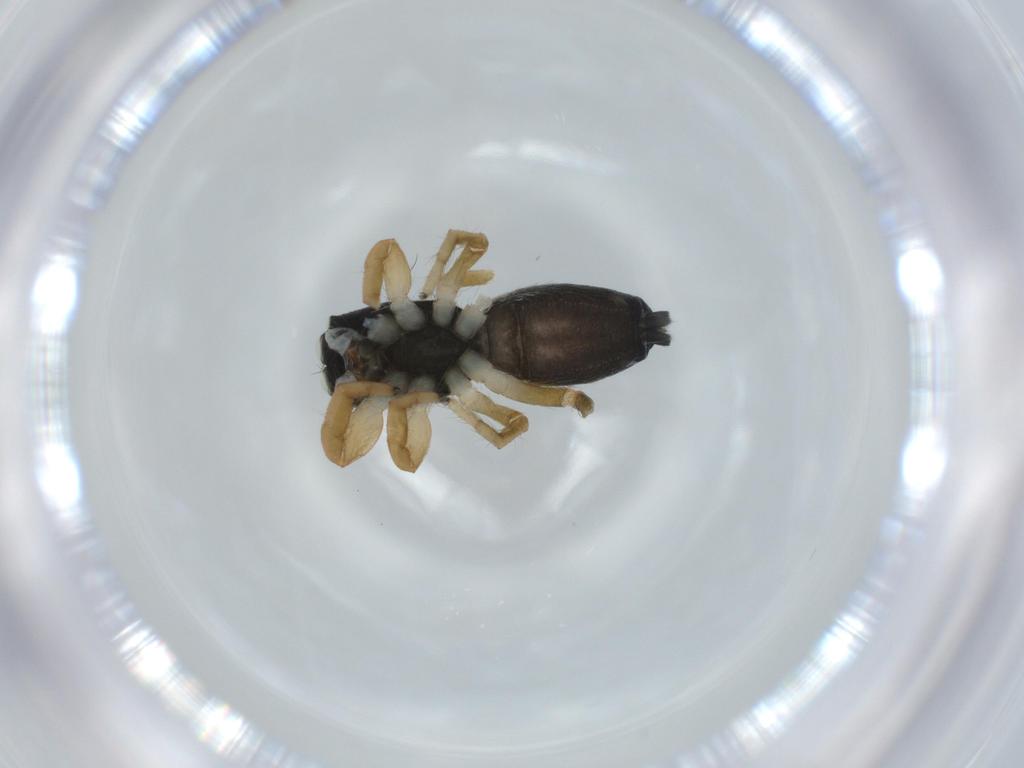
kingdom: Animalia
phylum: Arthropoda
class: Arachnida
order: Araneae
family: Salticidae
